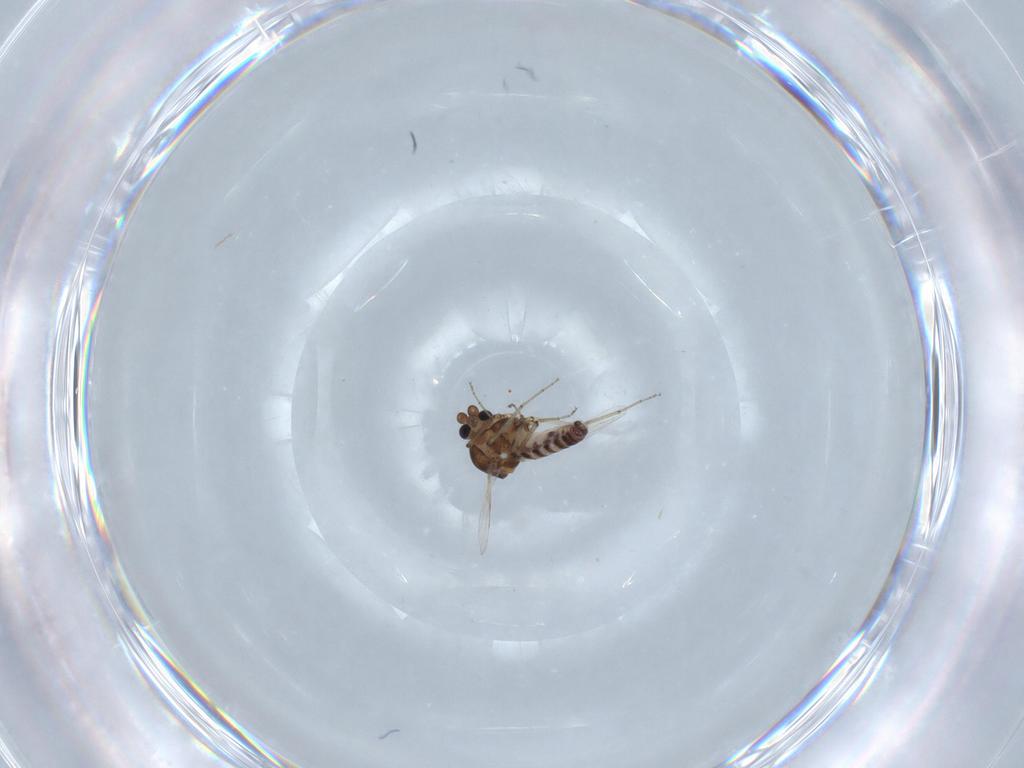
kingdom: Animalia
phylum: Arthropoda
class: Insecta
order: Diptera
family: Ceratopogonidae
